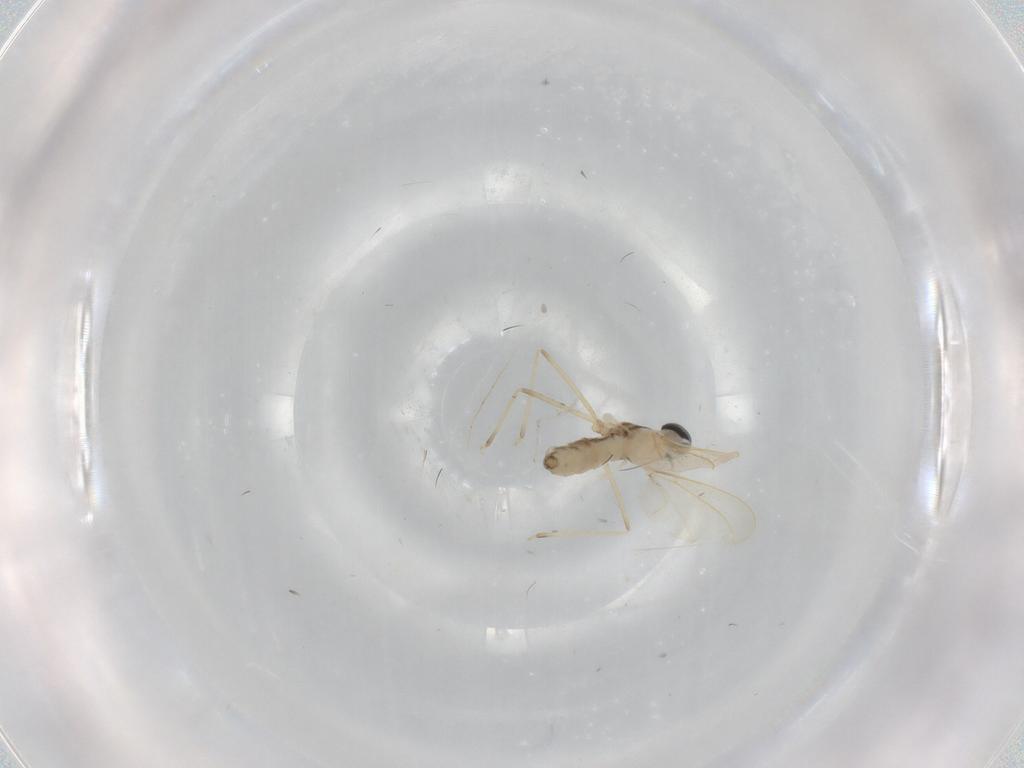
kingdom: Animalia
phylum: Arthropoda
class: Insecta
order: Diptera
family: Cecidomyiidae
